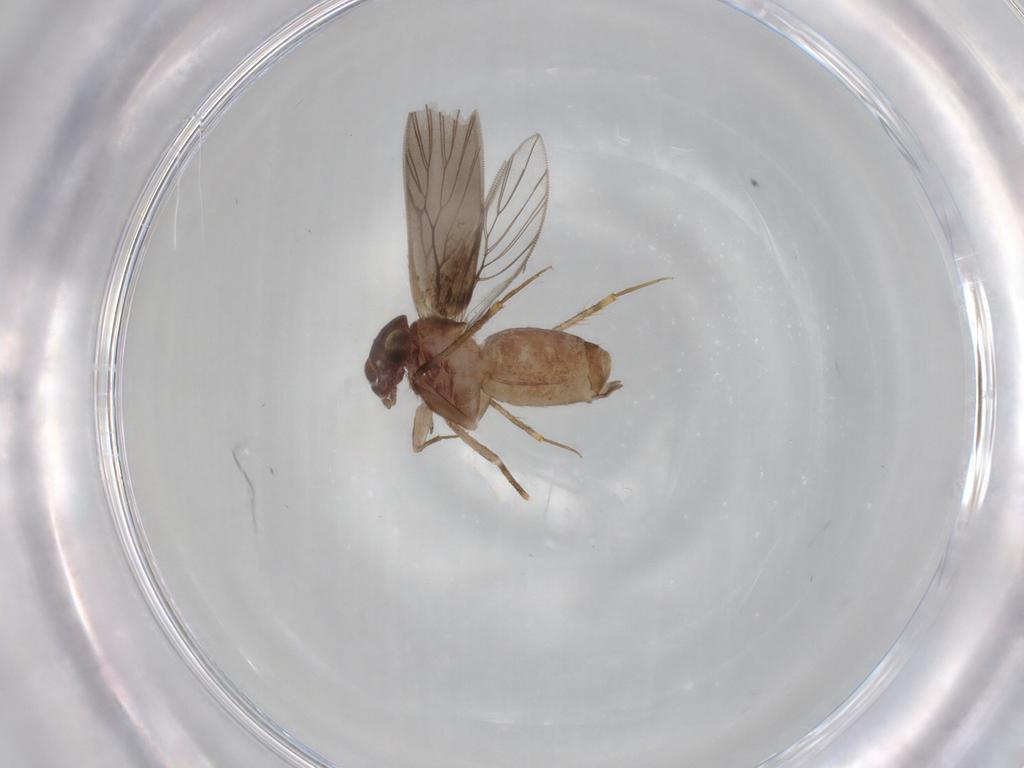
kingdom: Animalia
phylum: Arthropoda
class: Insecta
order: Psocodea
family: Lepidopsocidae
